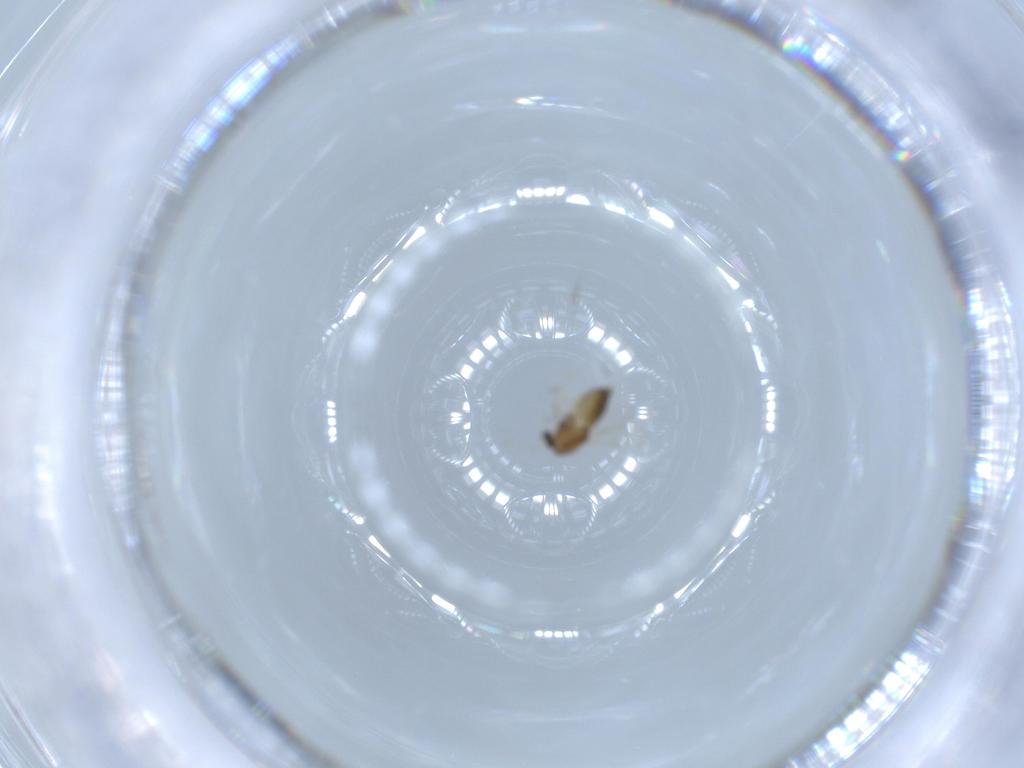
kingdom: Animalia
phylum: Arthropoda
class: Insecta
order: Diptera
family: Chironomidae
